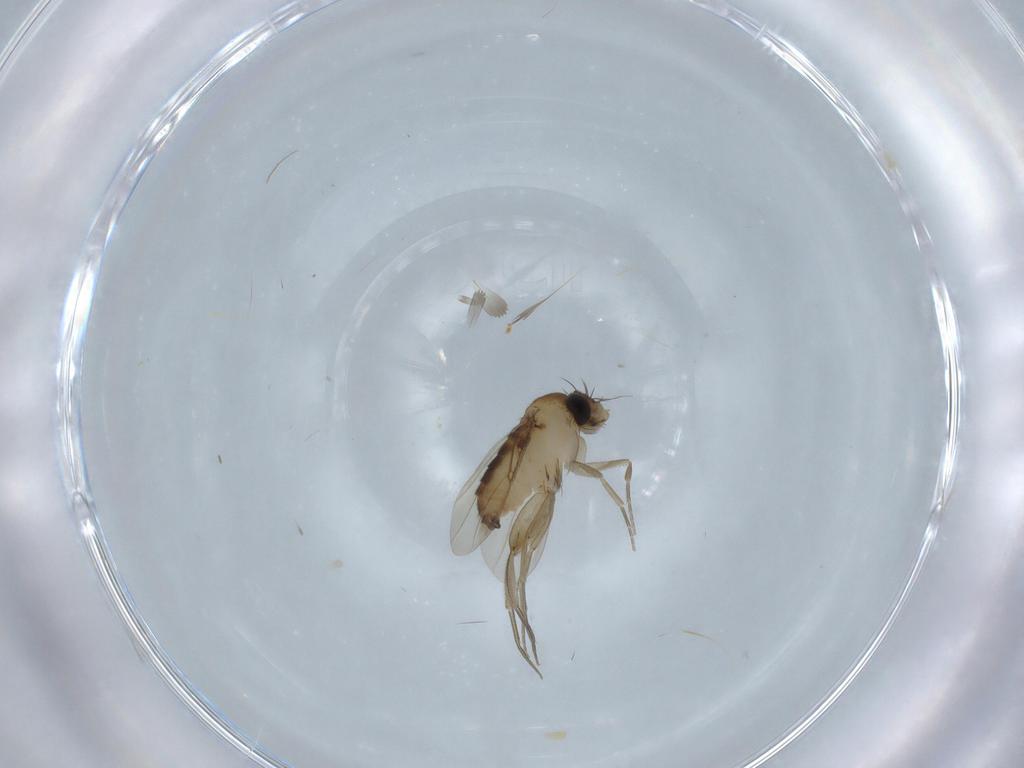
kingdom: Animalia
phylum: Arthropoda
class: Insecta
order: Diptera
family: Phoridae
